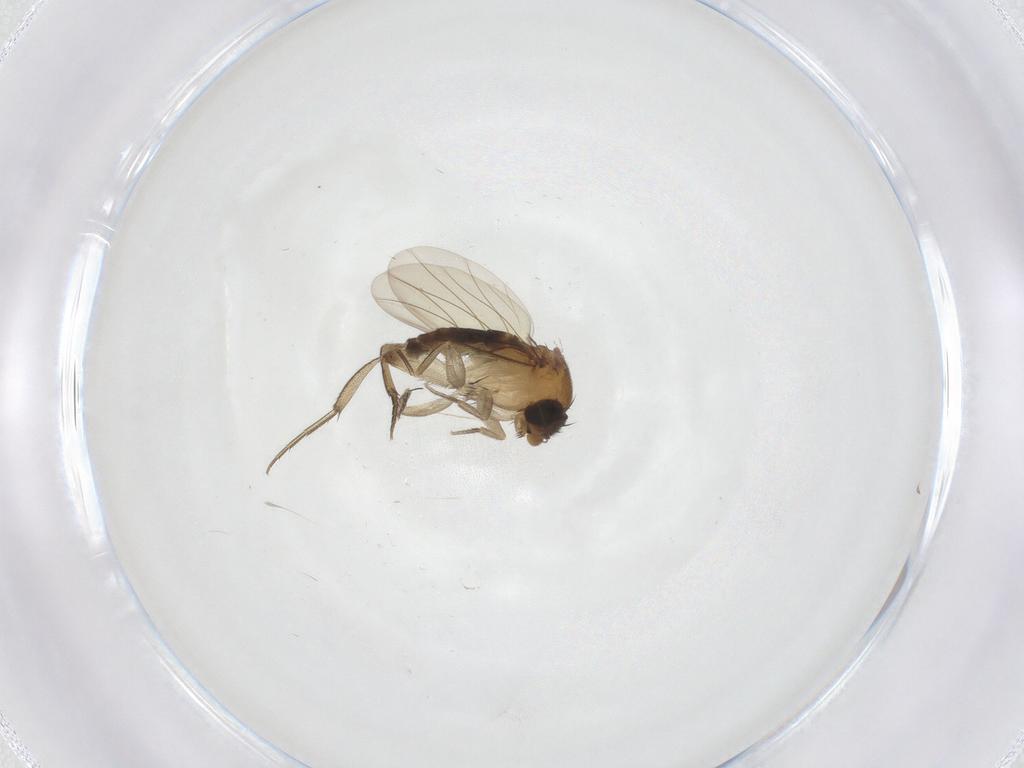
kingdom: Animalia
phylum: Arthropoda
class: Insecta
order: Diptera
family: Phoridae
